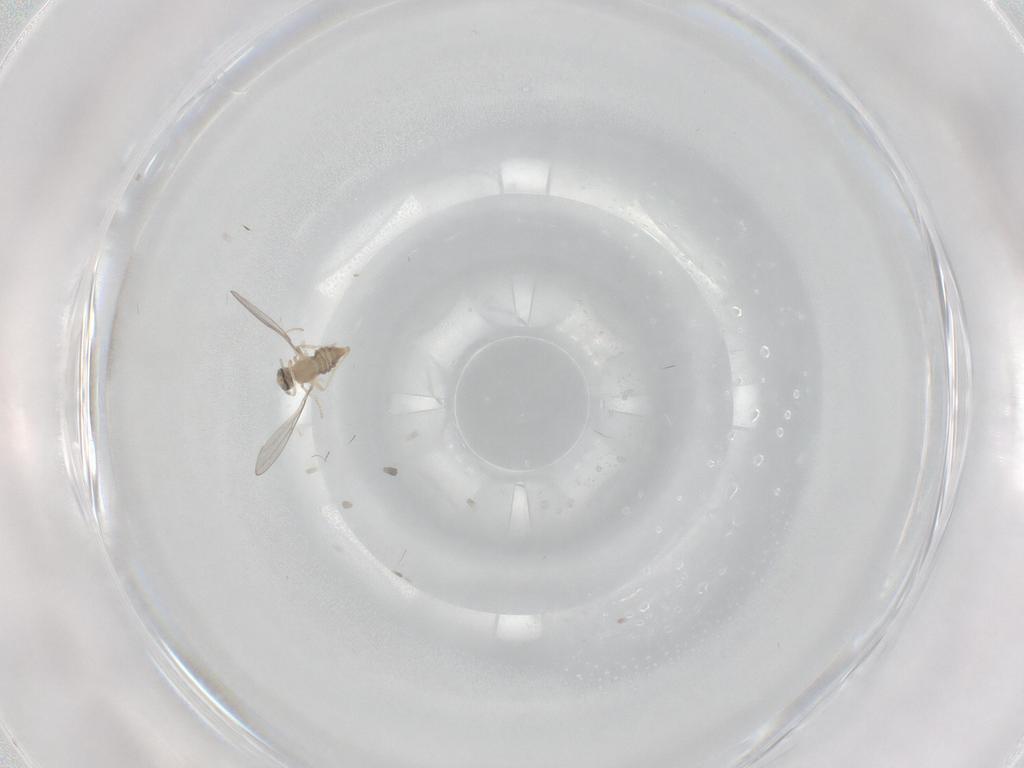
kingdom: Animalia
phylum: Arthropoda
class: Insecta
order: Diptera
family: Cecidomyiidae
